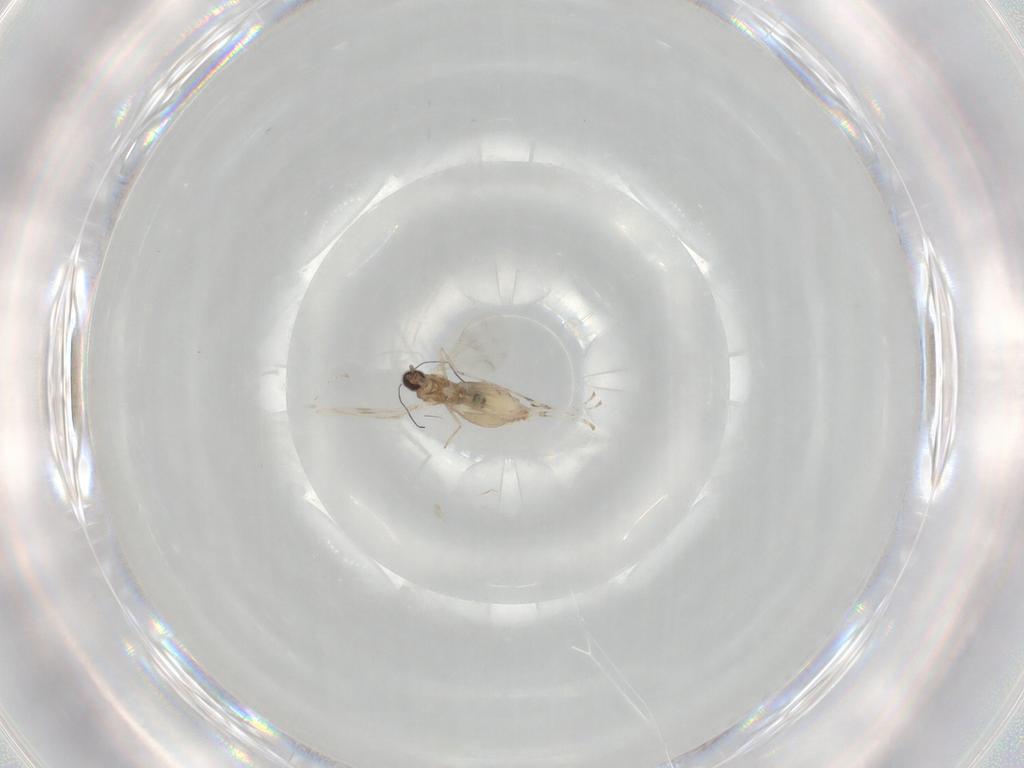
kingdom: Animalia
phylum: Arthropoda
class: Insecta
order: Diptera
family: Cecidomyiidae
